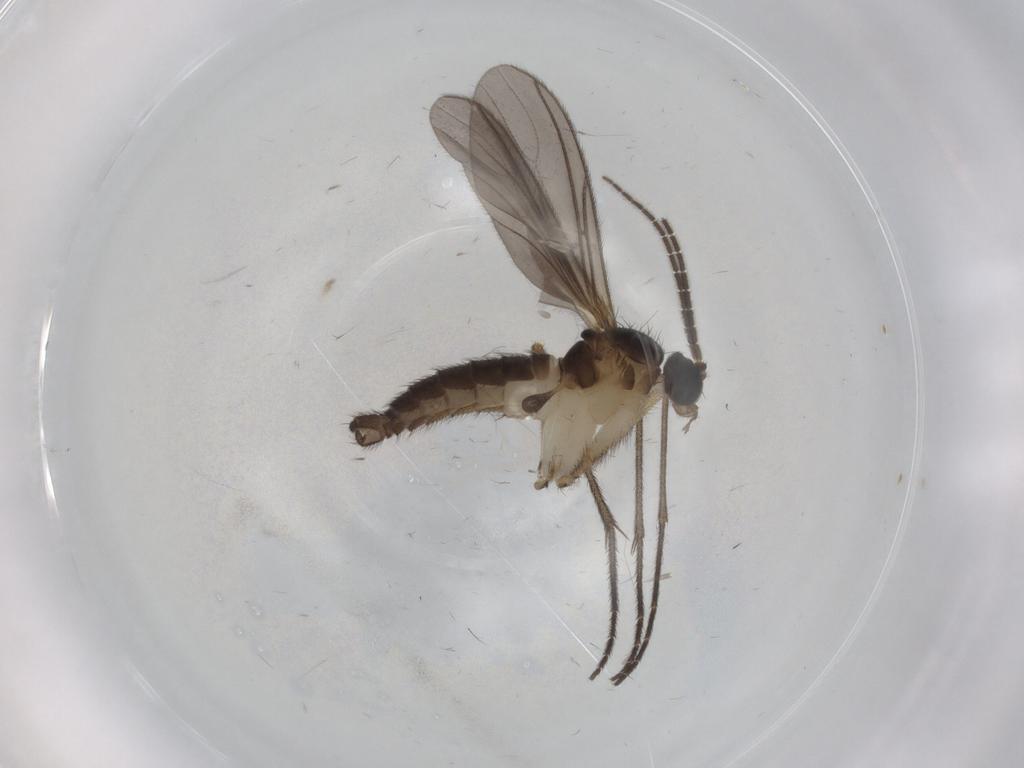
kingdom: Animalia
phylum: Arthropoda
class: Insecta
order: Diptera
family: Sciaridae
